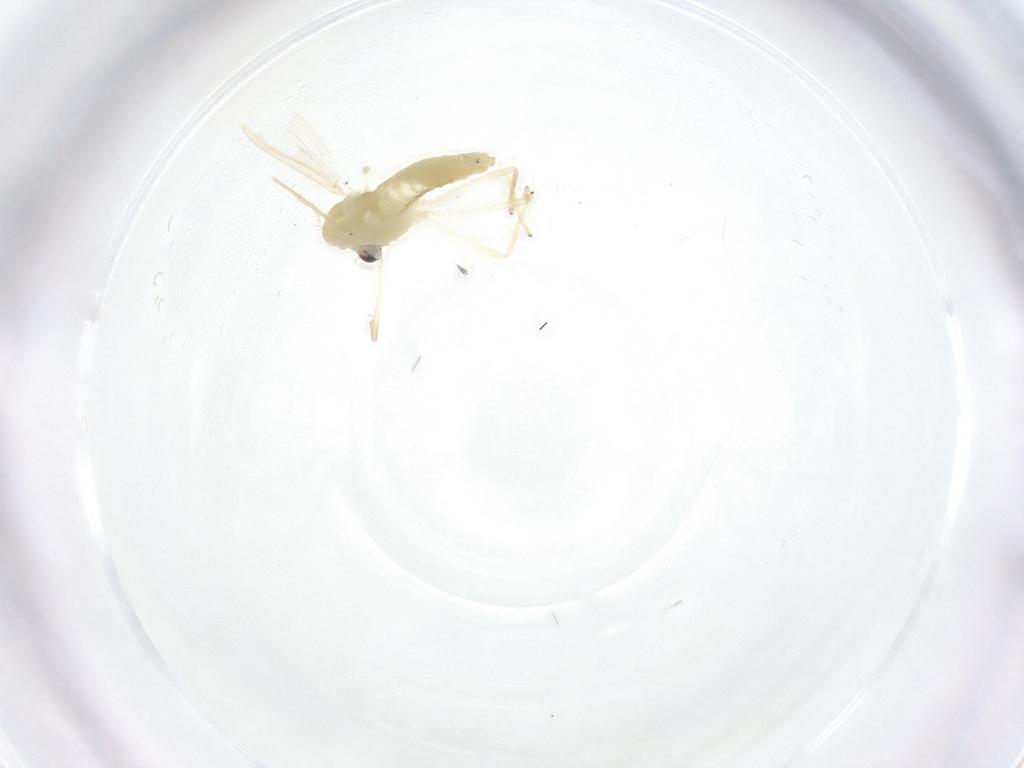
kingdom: Animalia
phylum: Arthropoda
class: Insecta
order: Diptera
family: Chironomidae
